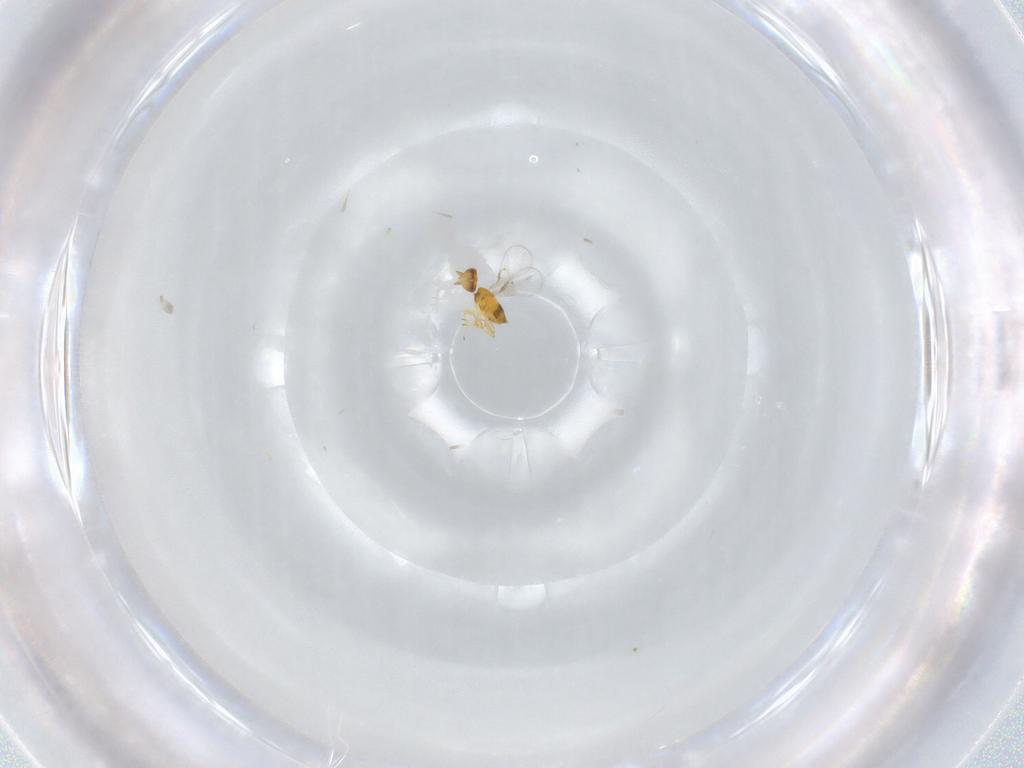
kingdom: Animalia
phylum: Arthropoda
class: Insecta
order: Hymenoptera
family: Trichogrammatidae
